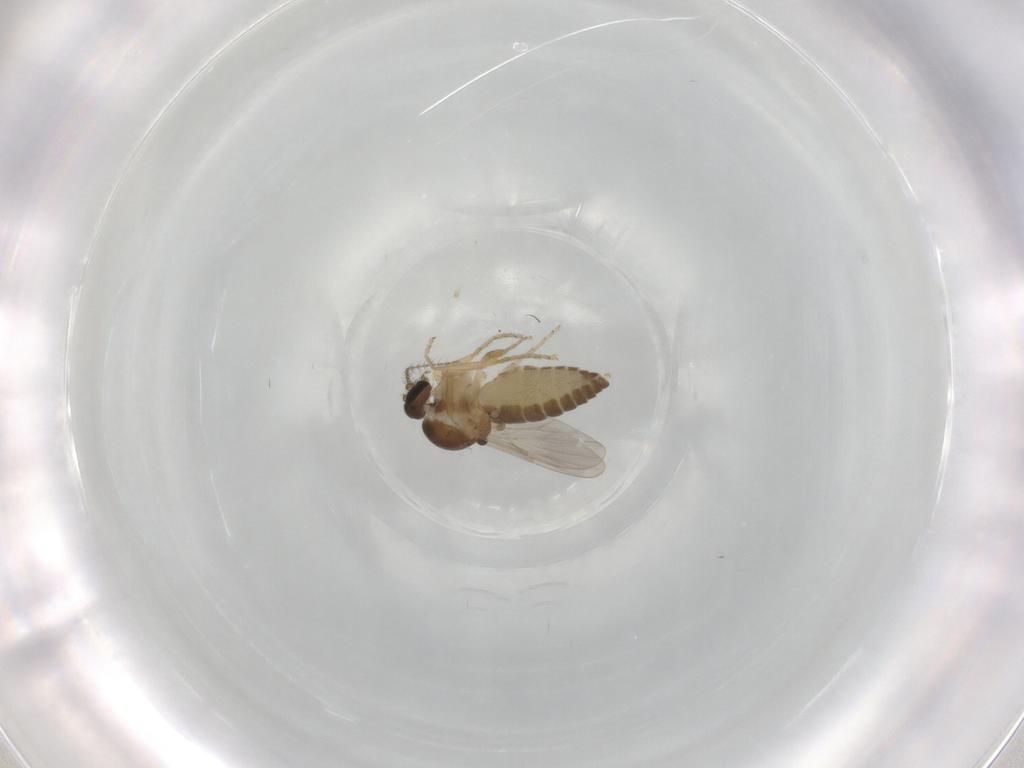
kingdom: Animalia
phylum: Arthropoda
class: Insecta
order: Diptera
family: Ceratopogonidae
